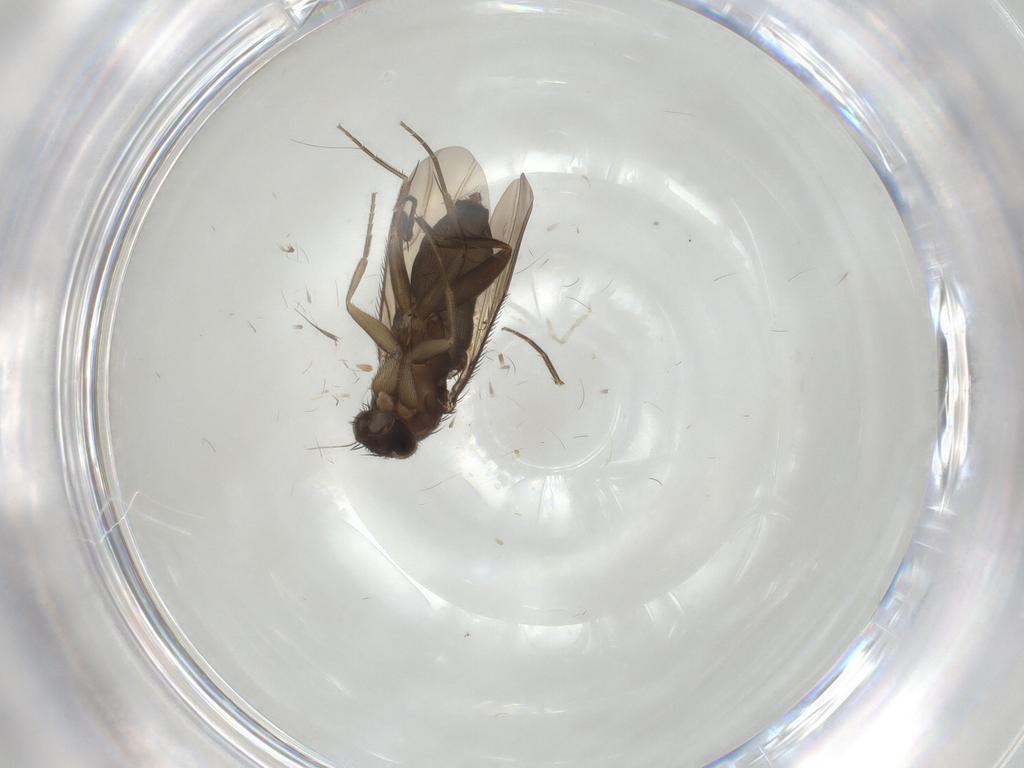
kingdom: Animalia
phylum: Arthropoda
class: Insecta
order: Diptera
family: Phoridae
